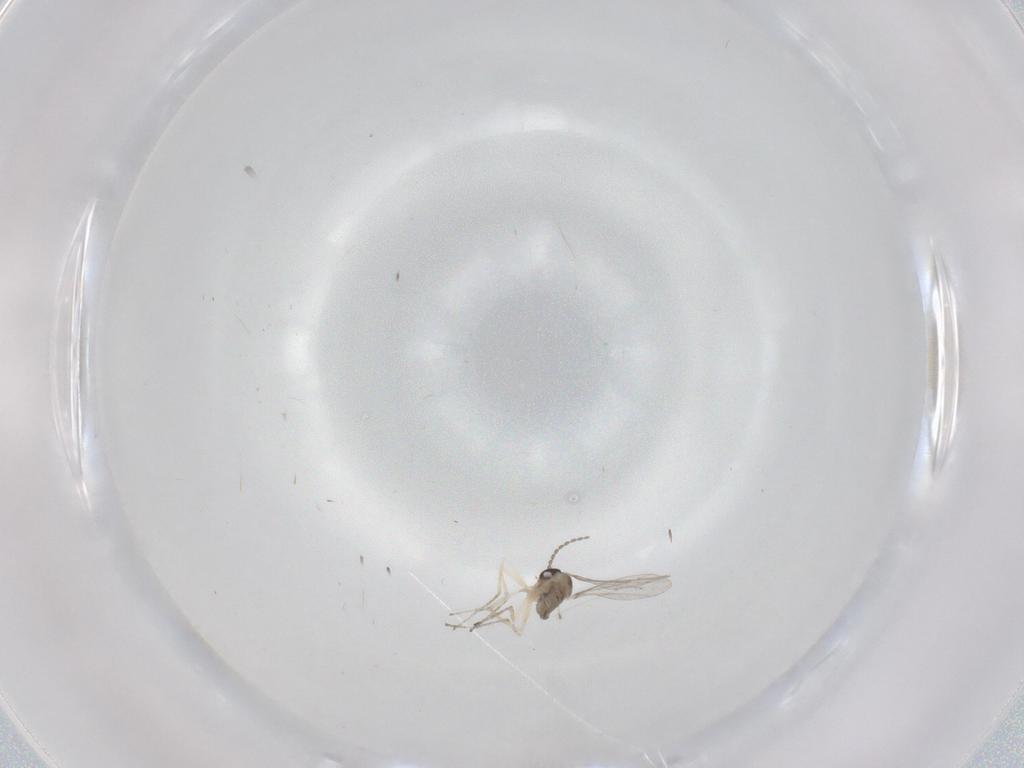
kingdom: Animalia
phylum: Arthropoda
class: Insecta
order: Diptera
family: Cecidomyiidae
